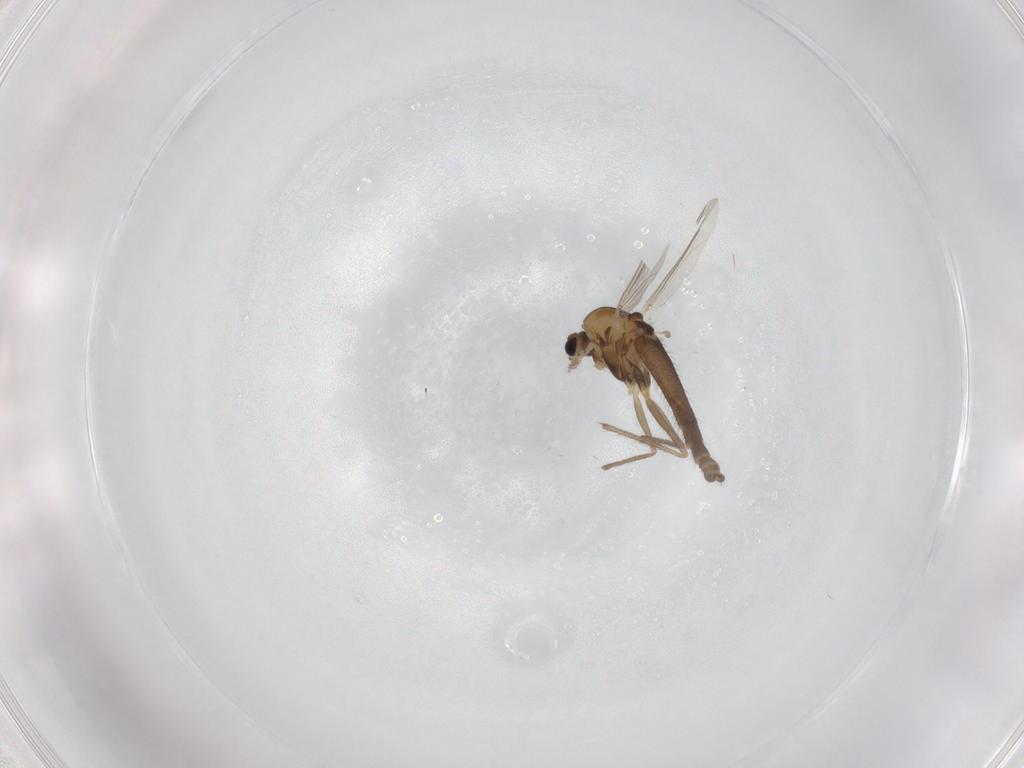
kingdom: Animalia
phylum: Arthropoda
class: Insecta
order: Diptera
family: Chironomidae
